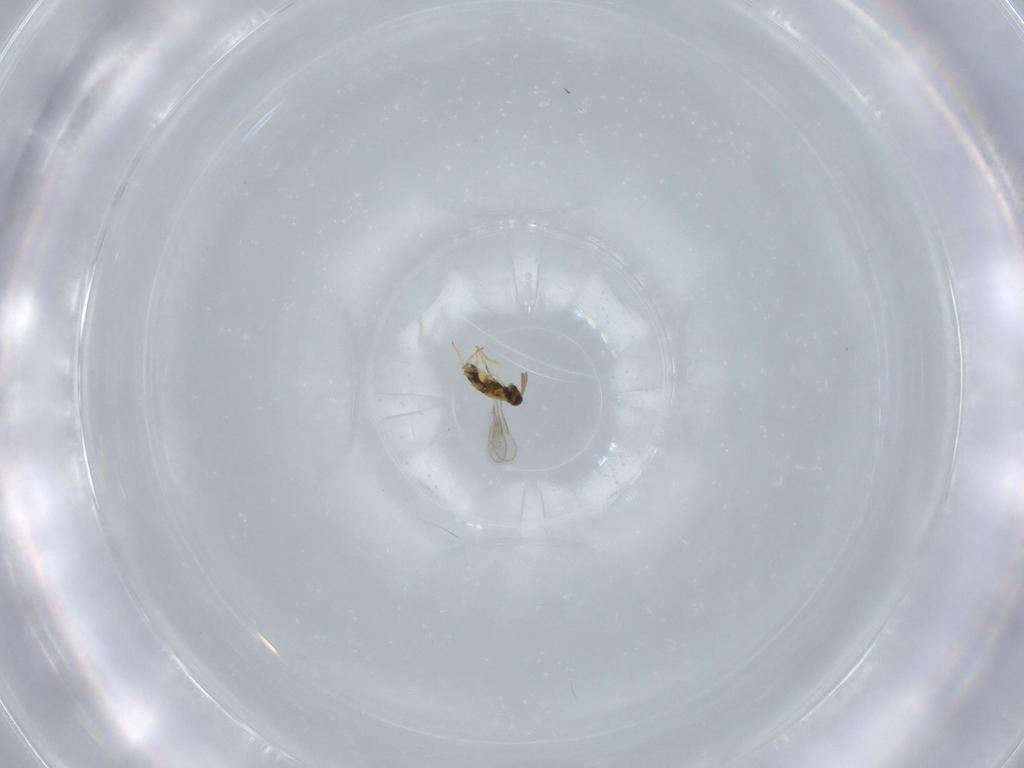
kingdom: Animalia
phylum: Arthropoda
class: Insecta
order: Hymenoptera
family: Aphelinidae
